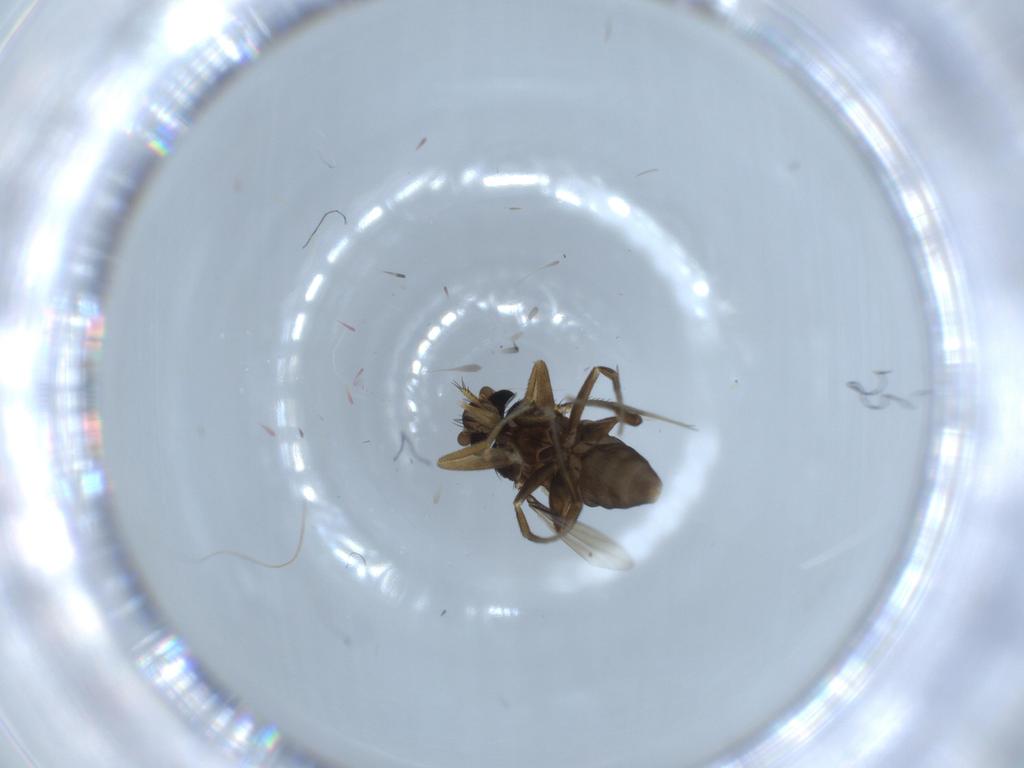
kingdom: Animalia
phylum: Arthropoda
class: Insecta
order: Diptera
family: Phoridae
